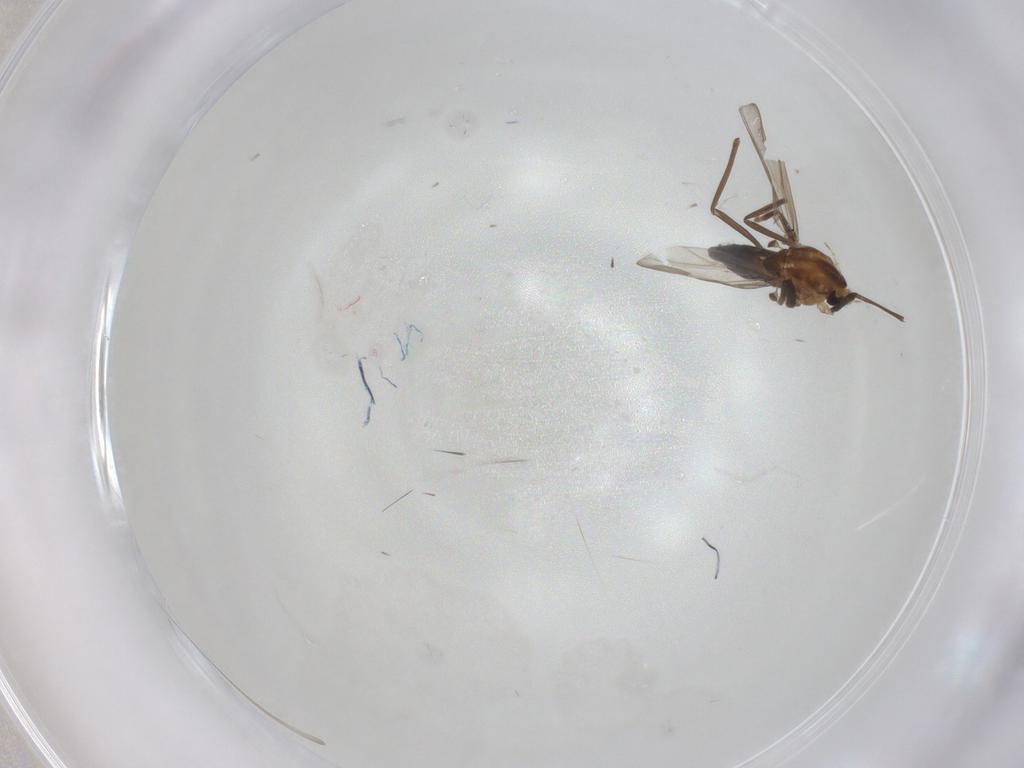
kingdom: Animalia
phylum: Arthropoda
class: Insecta
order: Diptera
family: Chironomidae
